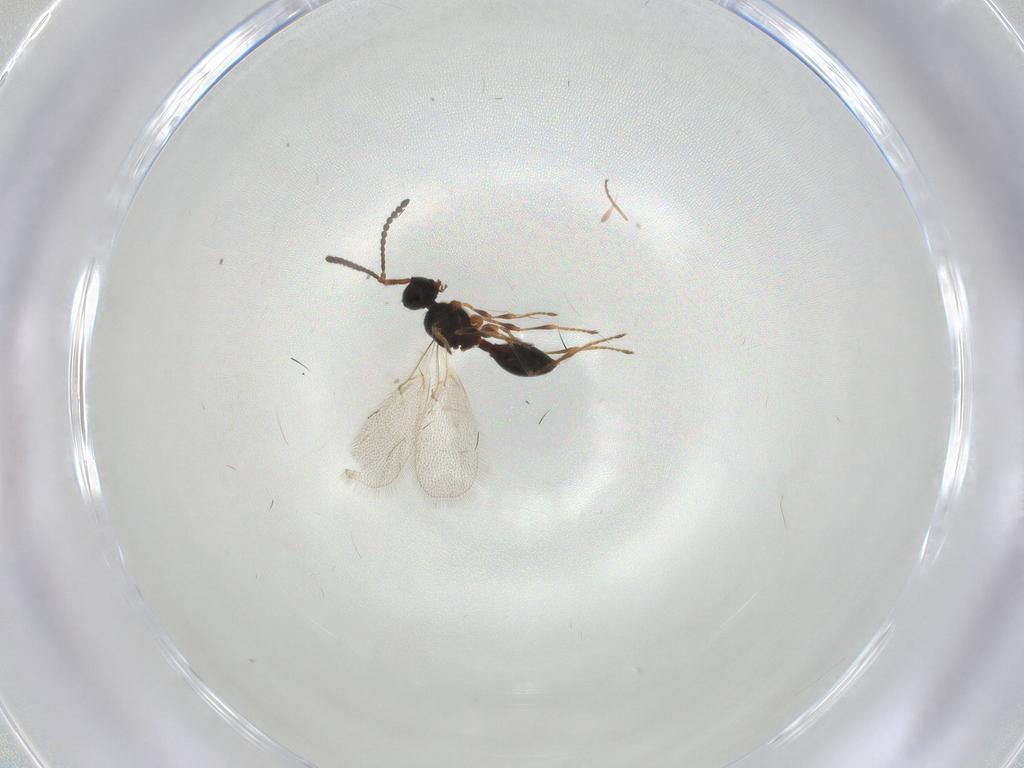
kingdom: Animalia
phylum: Arthropoda
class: Insecta
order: Hymenoptera
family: Diapriidae
